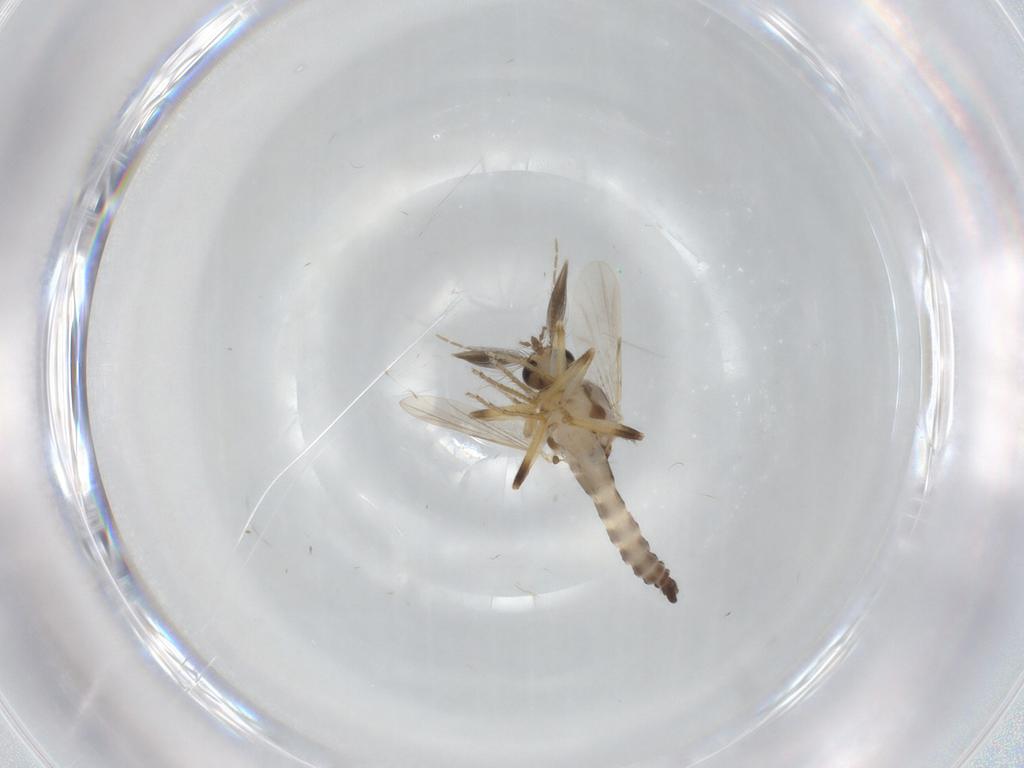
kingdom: Animalia
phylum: Arthropoda
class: Insecta
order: Diptera
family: Ceratopogonidae
